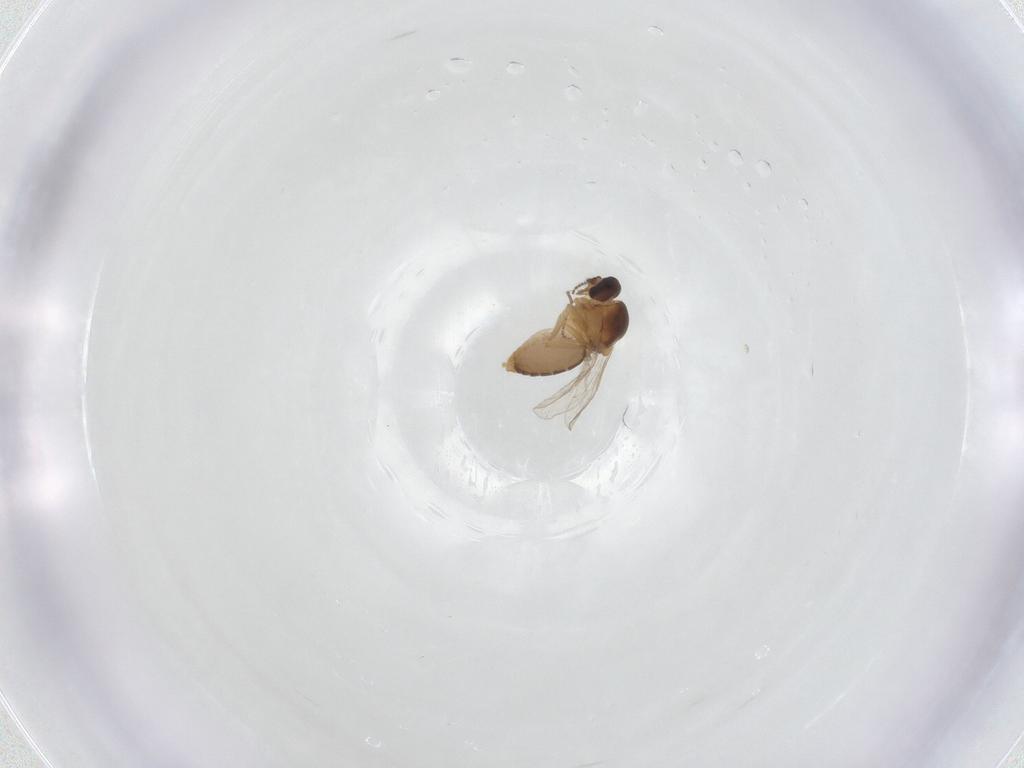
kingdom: Animalia
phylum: Arthropoda
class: Insecta
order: Diptera
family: Ceratopogonidae
